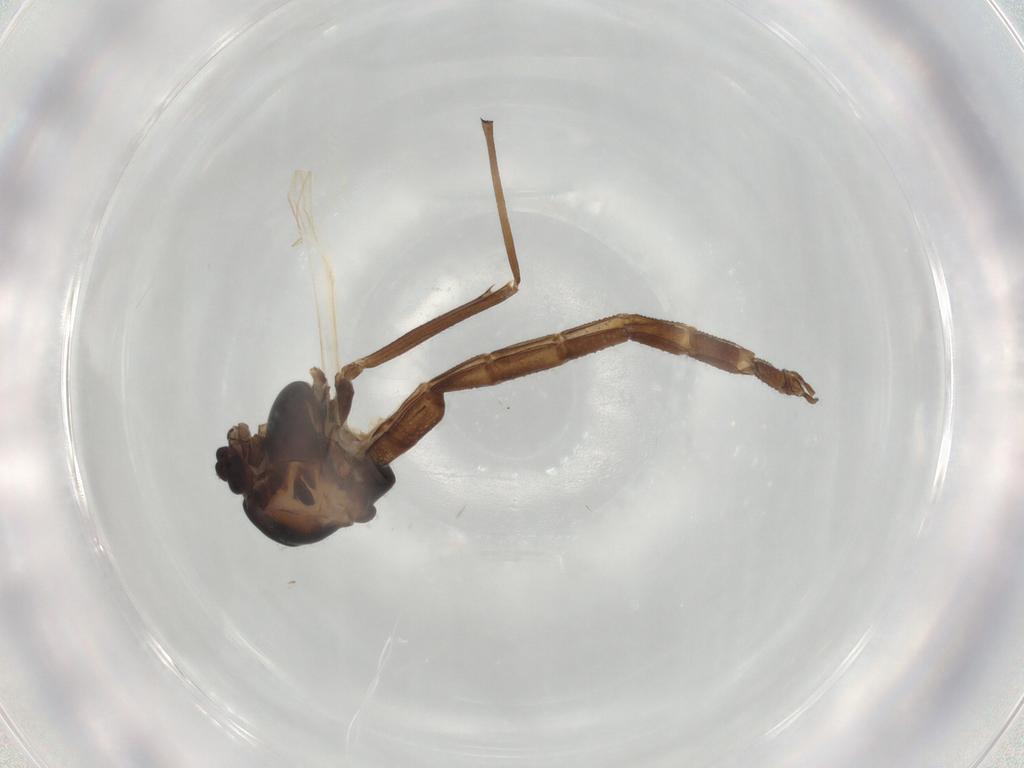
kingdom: Animalia
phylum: Arthropoda
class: Insecta
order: Diptera
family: Chironomidae
